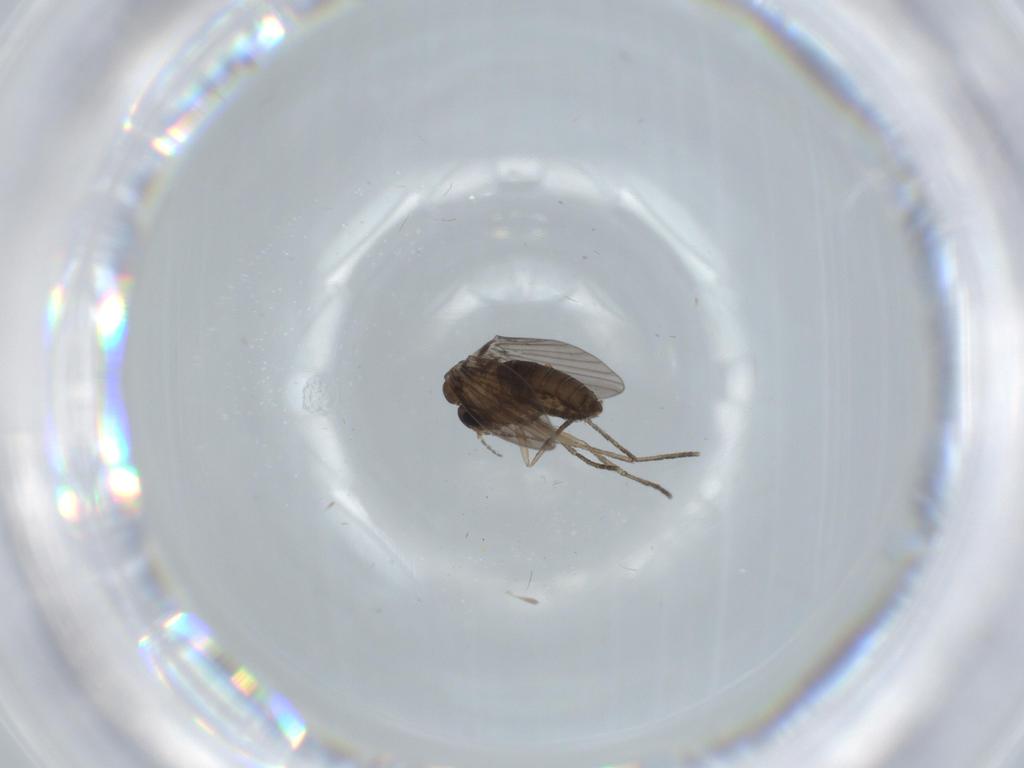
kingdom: Animalia
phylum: Arthropoda
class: Insecta
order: Diptera
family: Psychodidae
